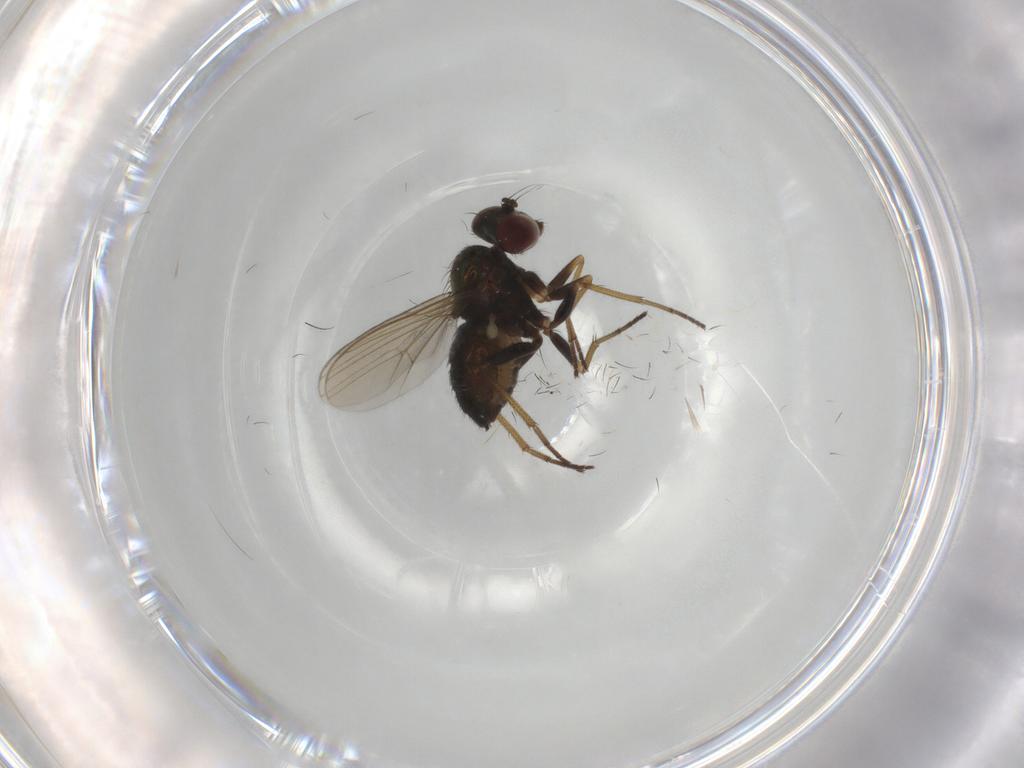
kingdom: Animalia
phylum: Arthropoda
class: Insecta
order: Diptera
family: Dolichopodidae
